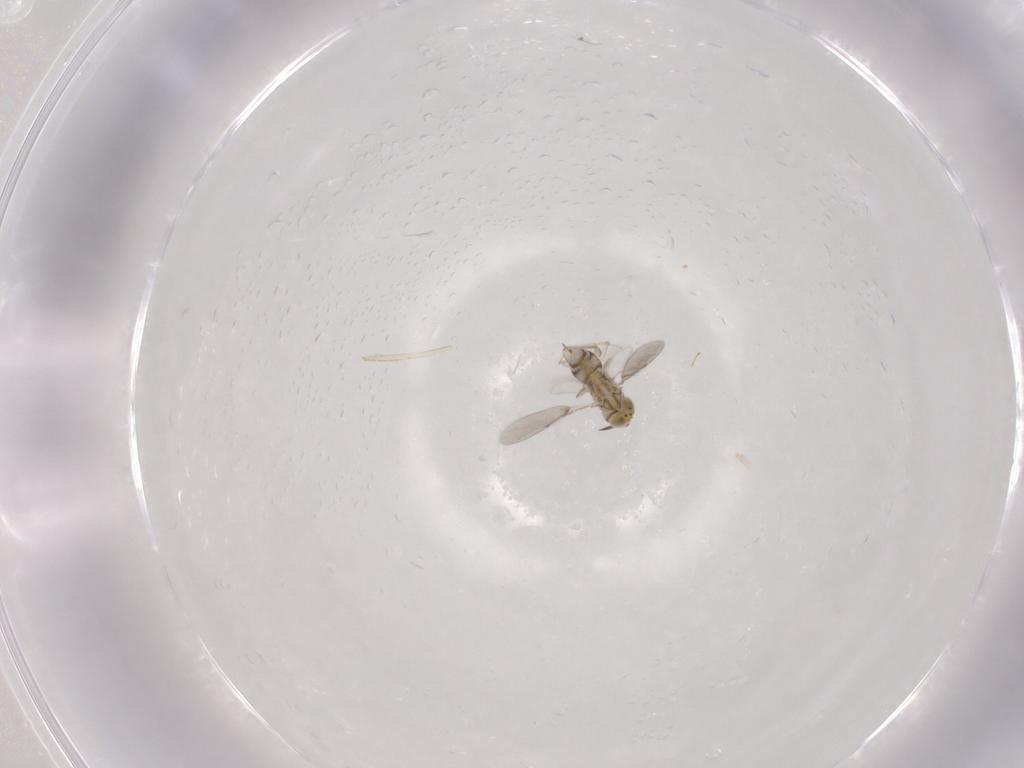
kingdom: Animalia
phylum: Arthropoda
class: Insecta
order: Hymenoptera
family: Aphelinidae
